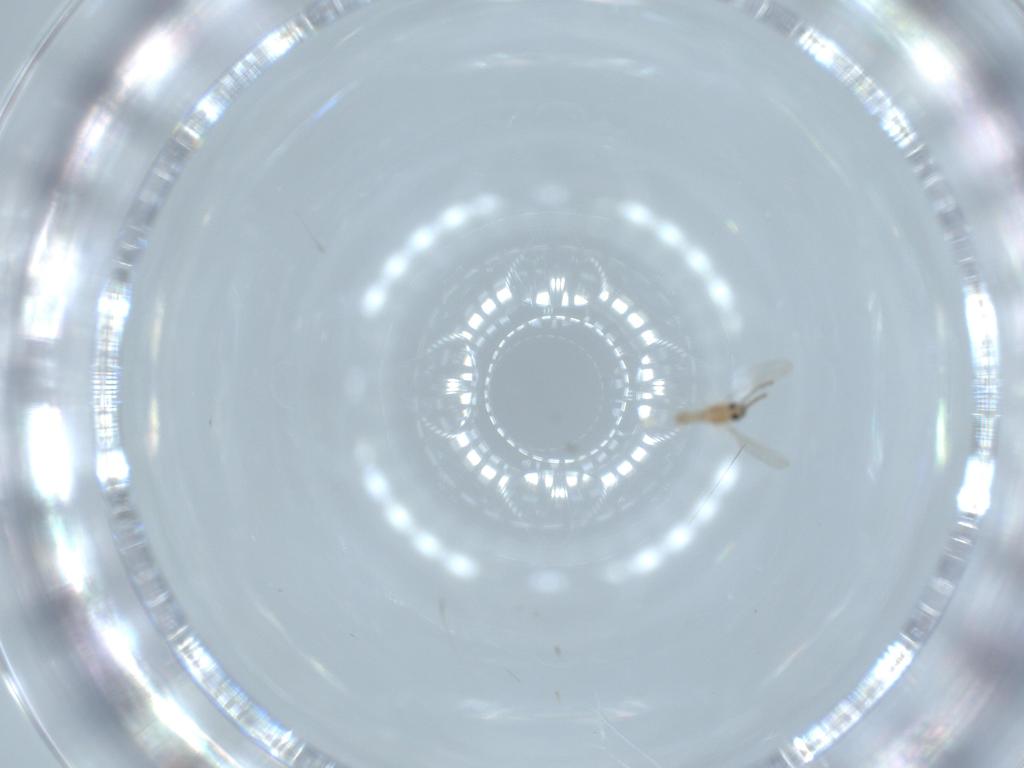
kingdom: Animalia
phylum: Arthropoda
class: Insecta
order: Diptera
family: Cecidomyiidae
